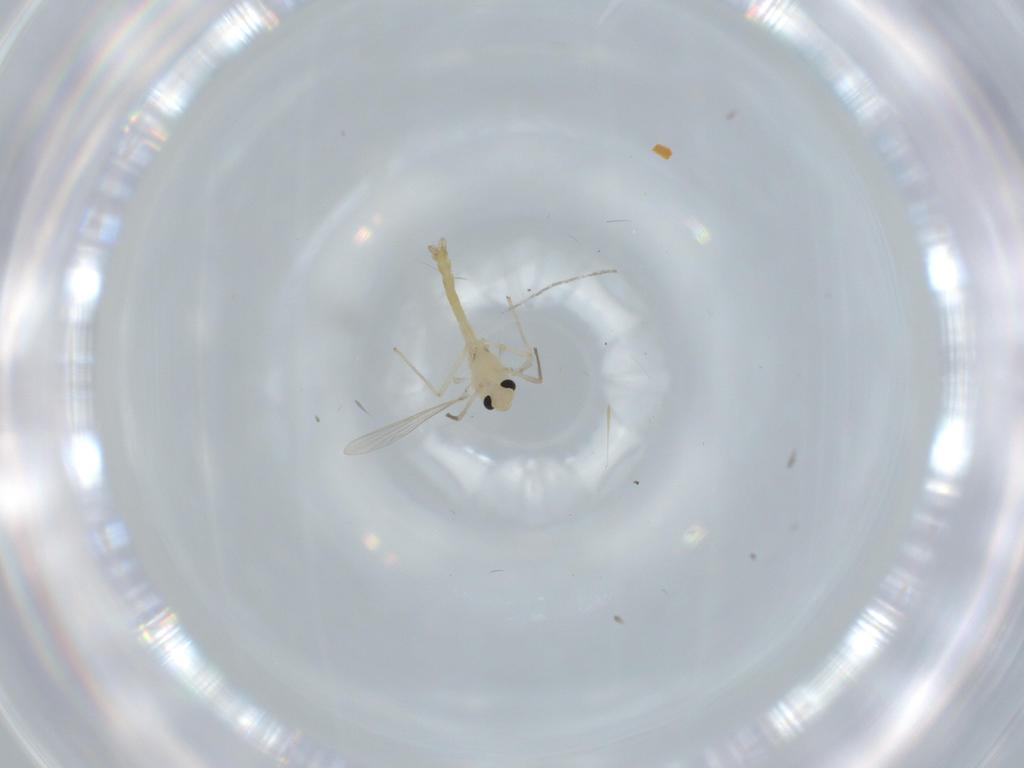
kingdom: Animalia
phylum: Arthropoda
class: Insecta
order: Diptera
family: Chironomidae
